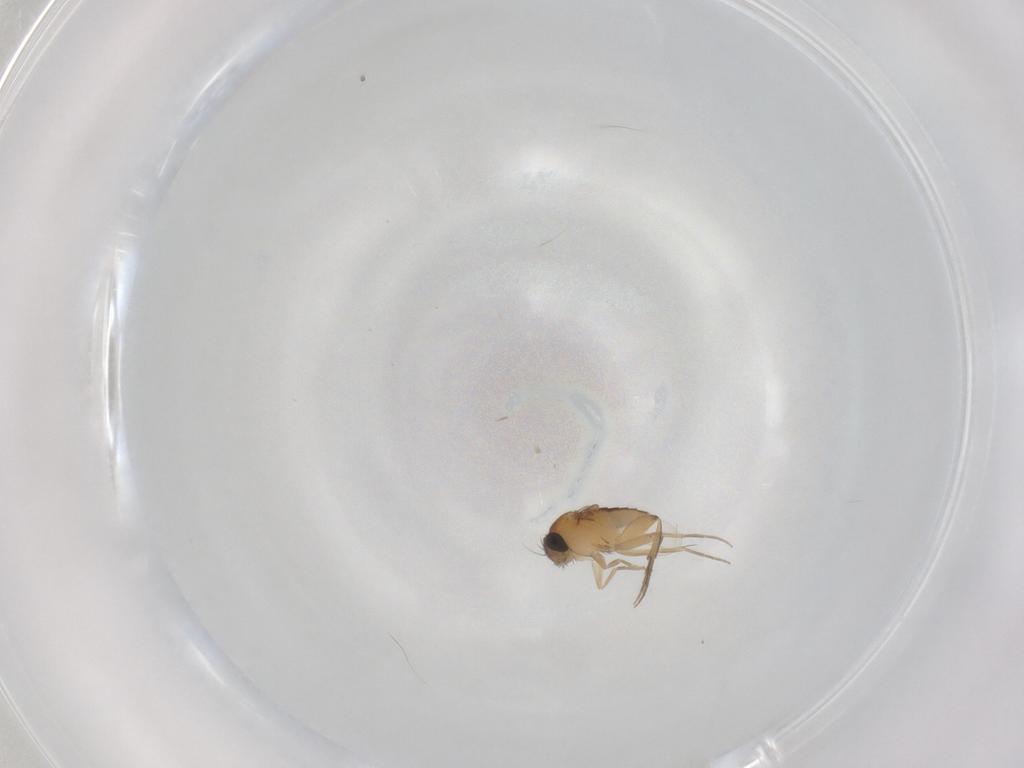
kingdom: Animalia
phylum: Arthropoda
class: Insecta
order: Diptera
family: Phoridae
